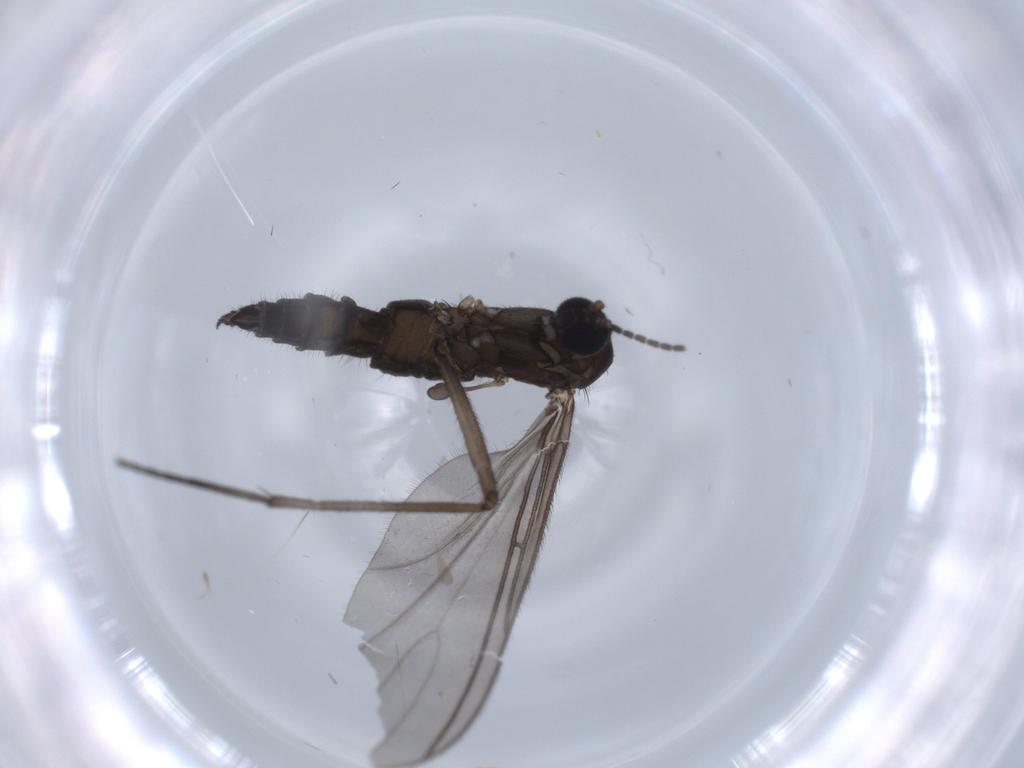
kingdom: Animalia
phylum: Arthropoda
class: Insecta
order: Diptera
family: Sciaridae
